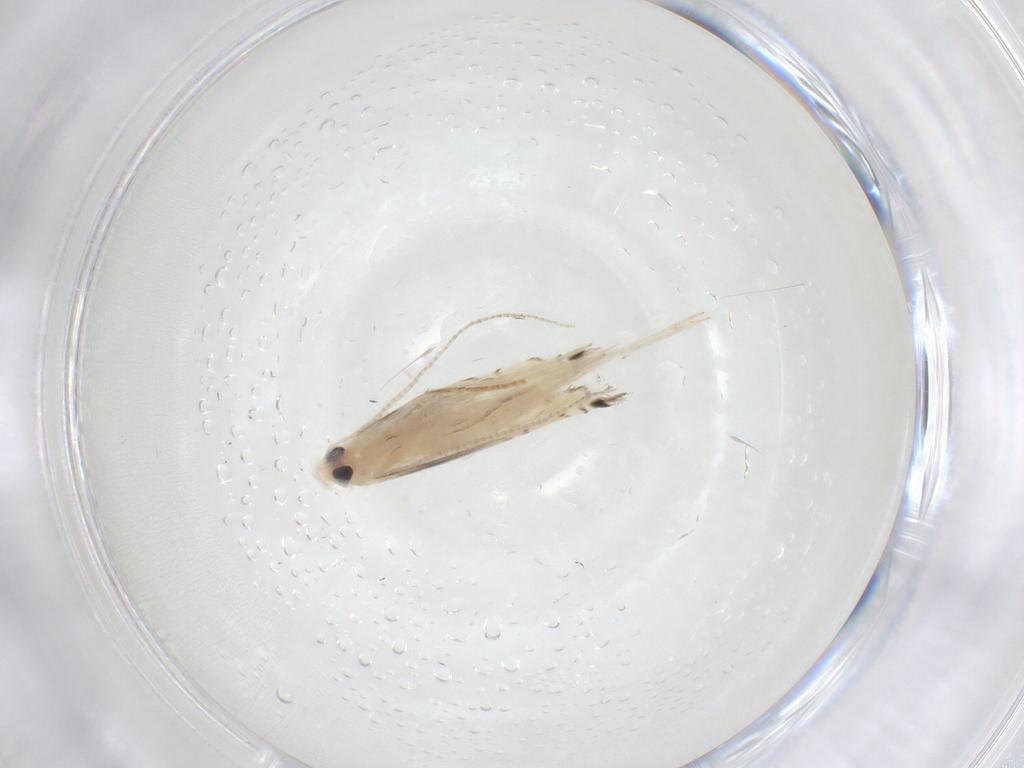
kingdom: Animalia
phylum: Arthropoda
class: Insecta
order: Lepidoptera
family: Gracillariidae
